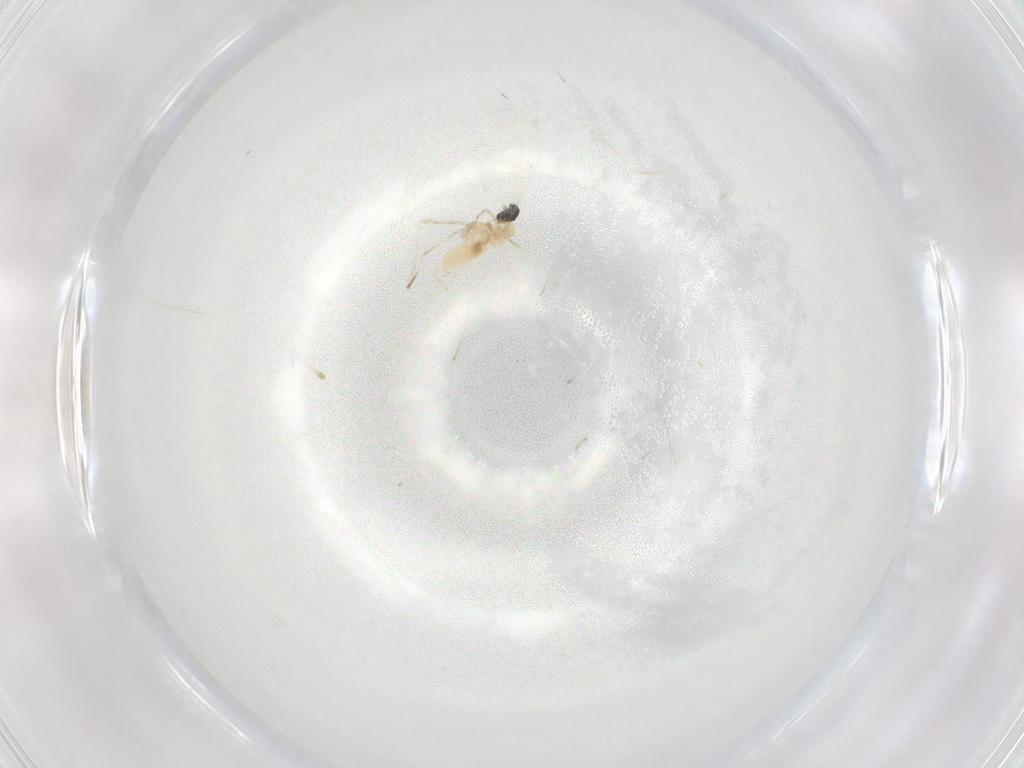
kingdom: Animalia
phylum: Arthropoda
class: Insecta
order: Diptera
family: Cecidomyiidae
